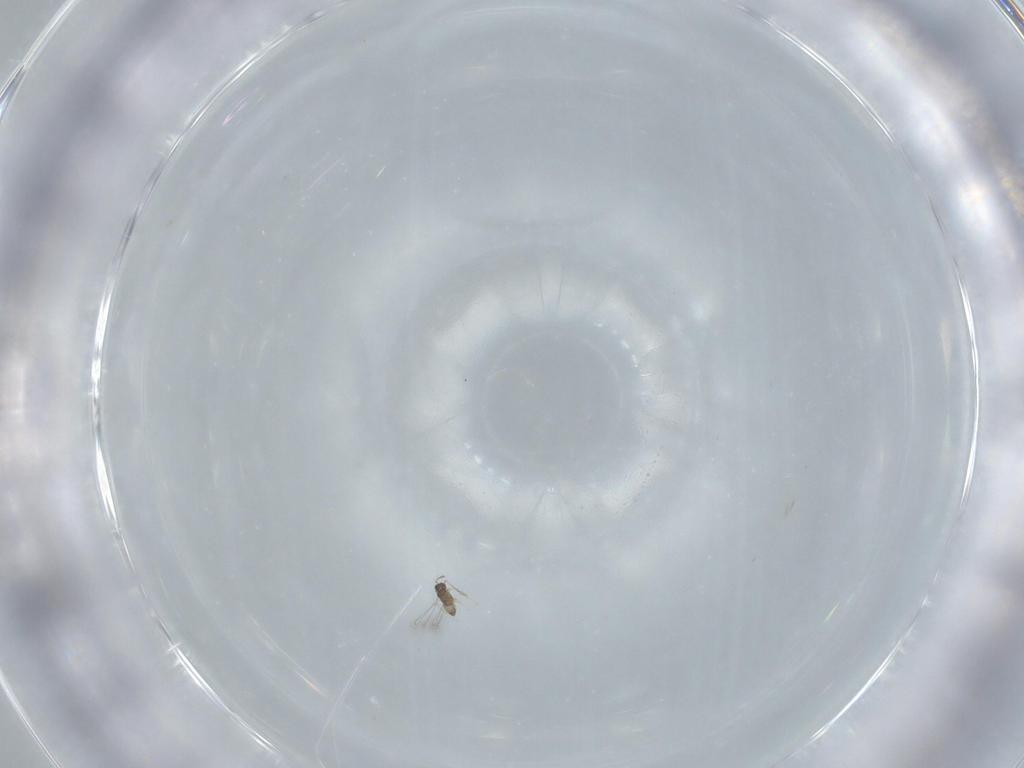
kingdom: Animalia
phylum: Arthropoda
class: Insecta
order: Hymenoptera
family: Mymaridae
